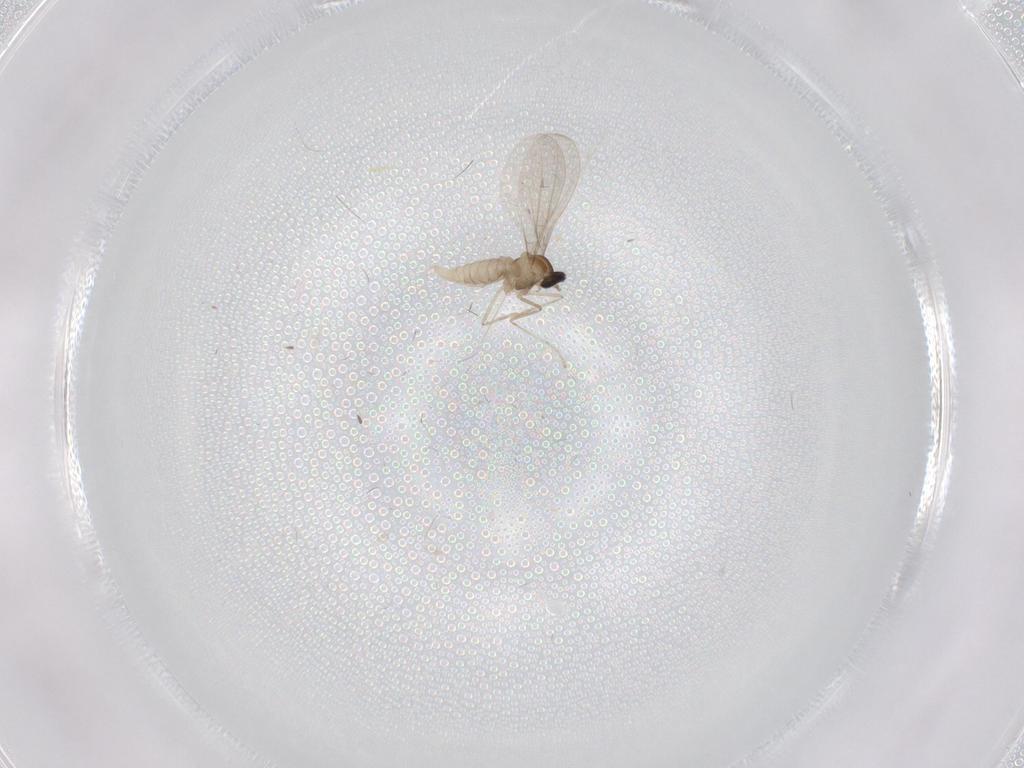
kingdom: Animalia
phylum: Arthropoda
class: Insecta
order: Diptera
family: Cecidomyiidae
